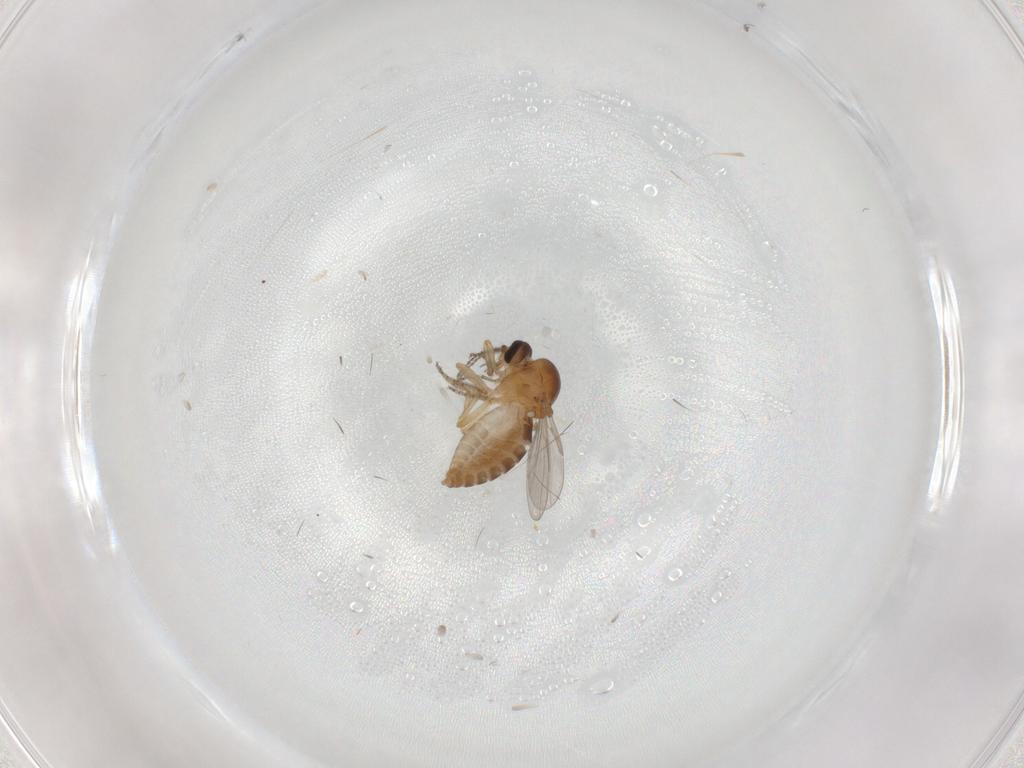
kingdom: Animalia
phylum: Arthropoda
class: Insecta
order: Diptera
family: Ceratopogonidae
